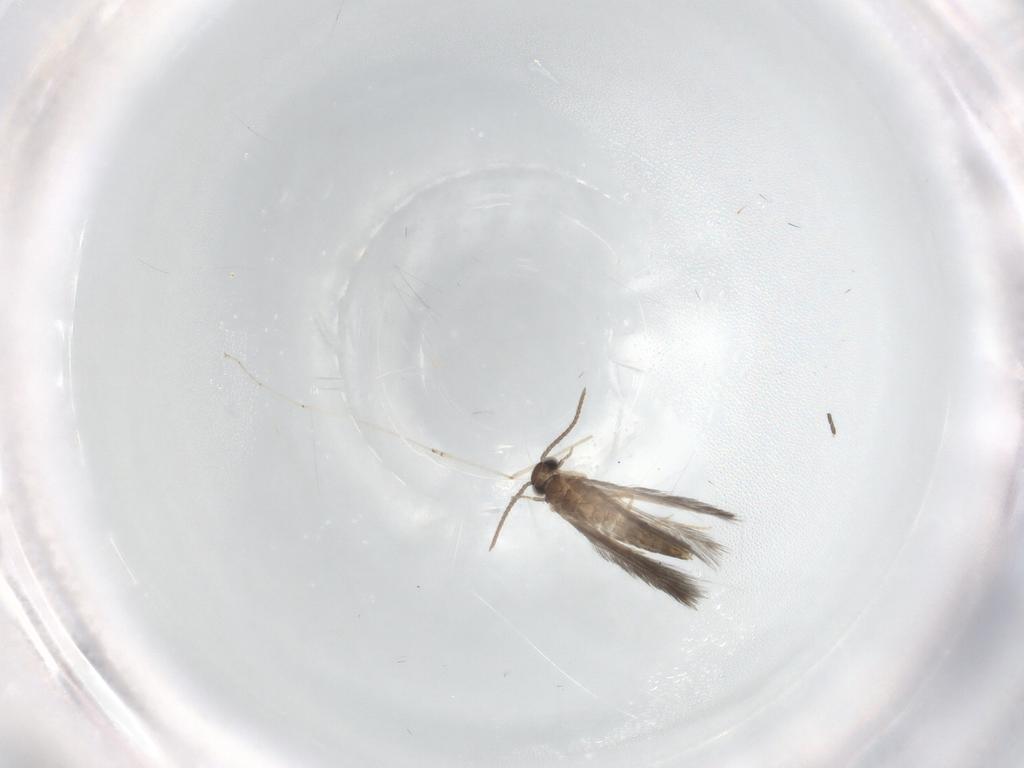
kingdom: Animalia
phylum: Arthropoda
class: Insecta
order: Trichoptera
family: Hydroptilidae
